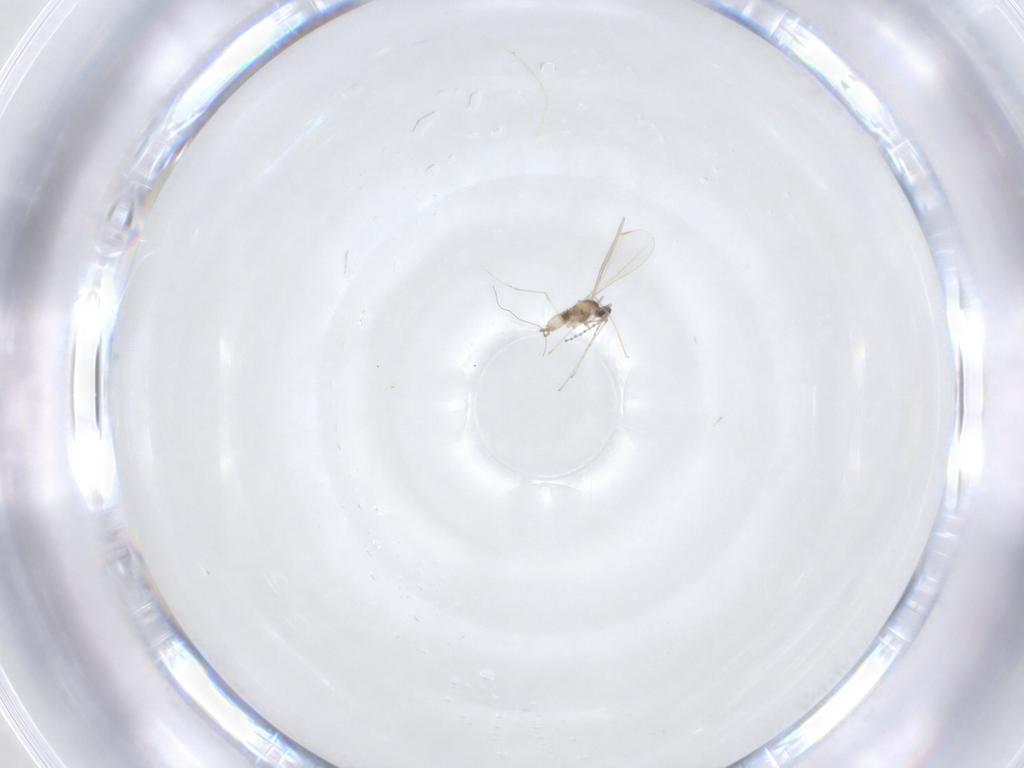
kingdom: Animalia
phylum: Arthropoda
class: Insecta
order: Diptera
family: Cecidomyiidae
